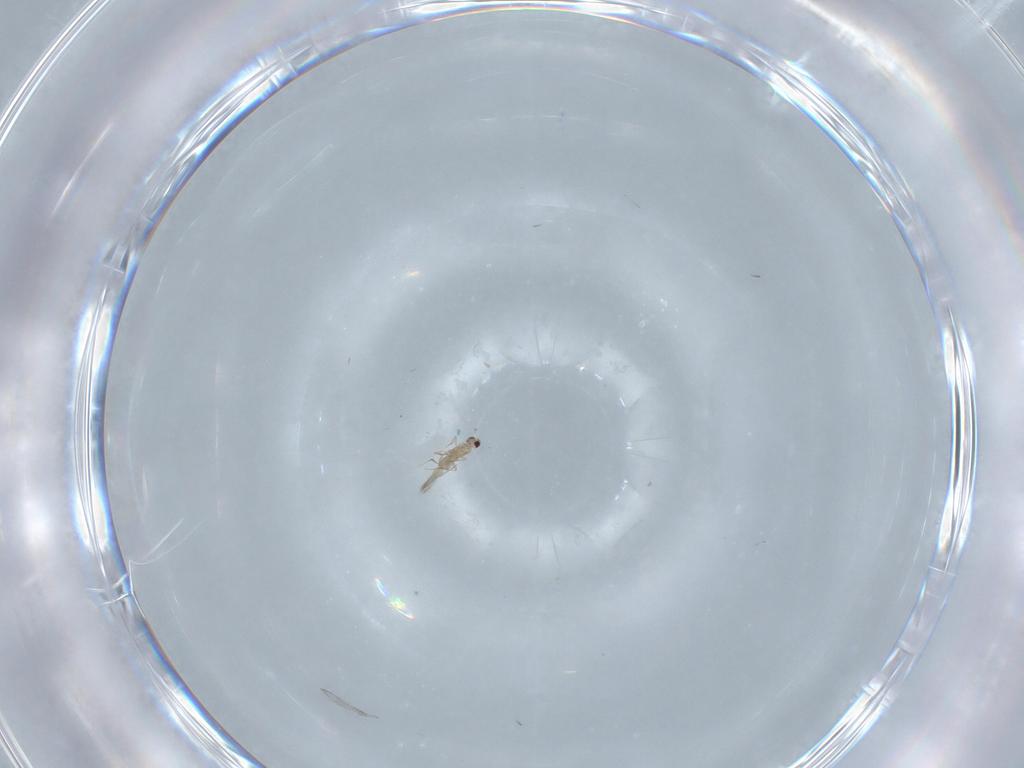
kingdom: Animalia
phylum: Arthropoda
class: Insecta
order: Hymenoptera
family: Mymaridae
